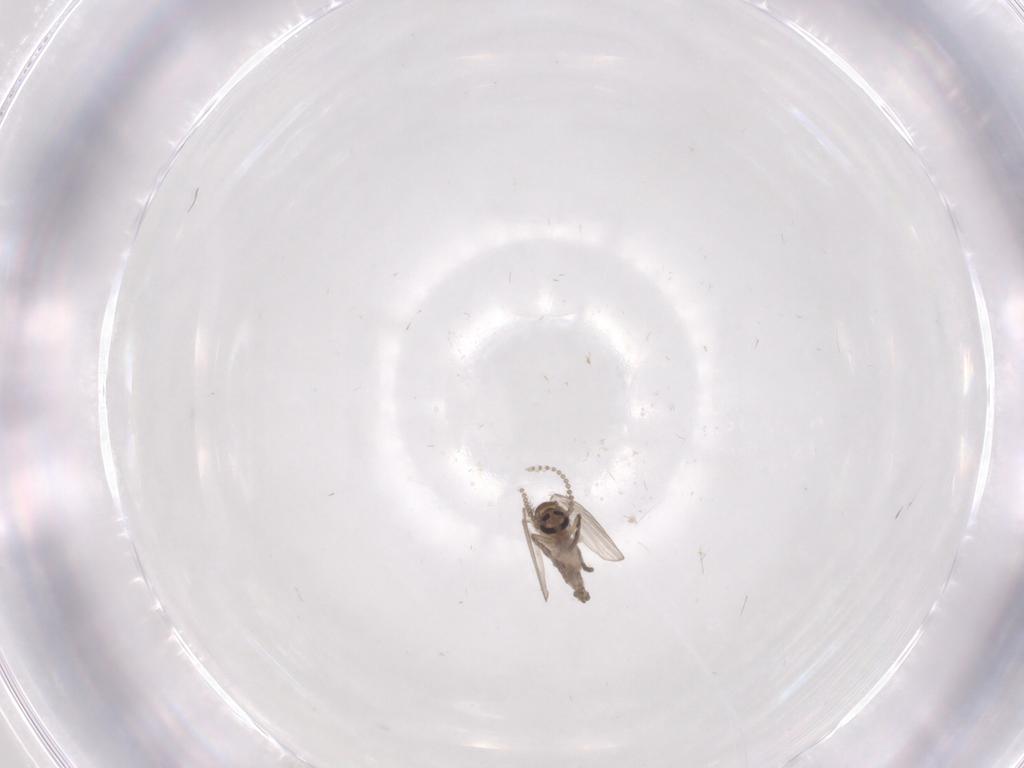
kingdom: Animalia
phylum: Arthropoda
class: Insecta
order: Diptera
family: Psychodidae
